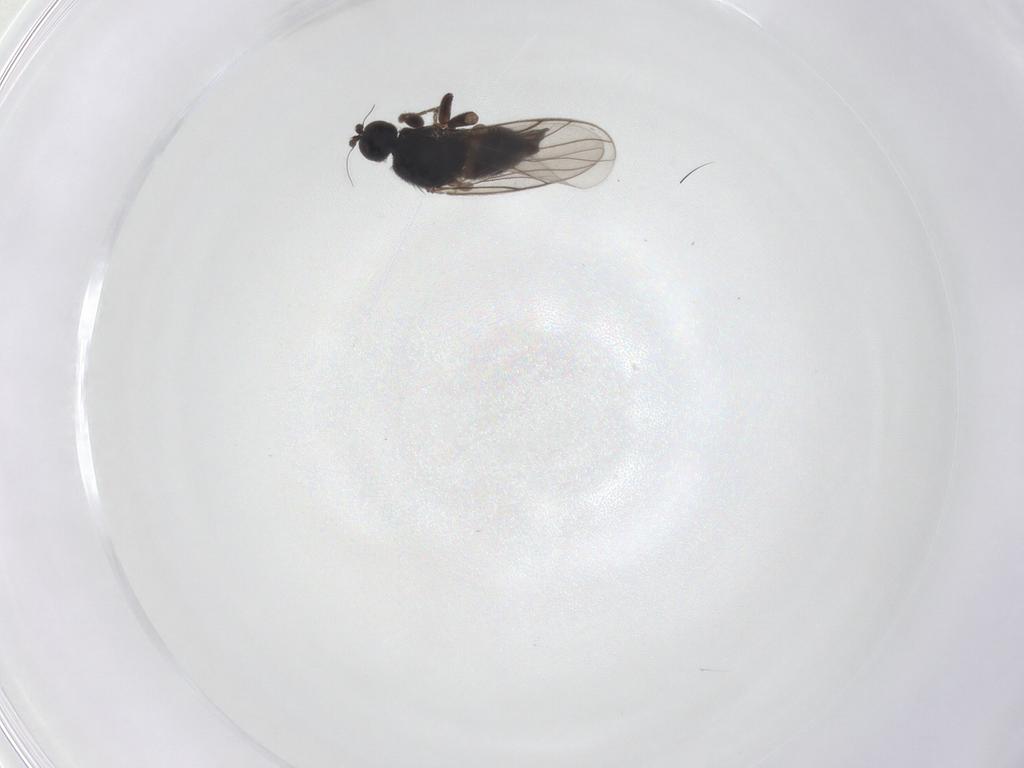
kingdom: Animalia
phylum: Arthropoda
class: Insecta
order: Diptera
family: Hybotidae
